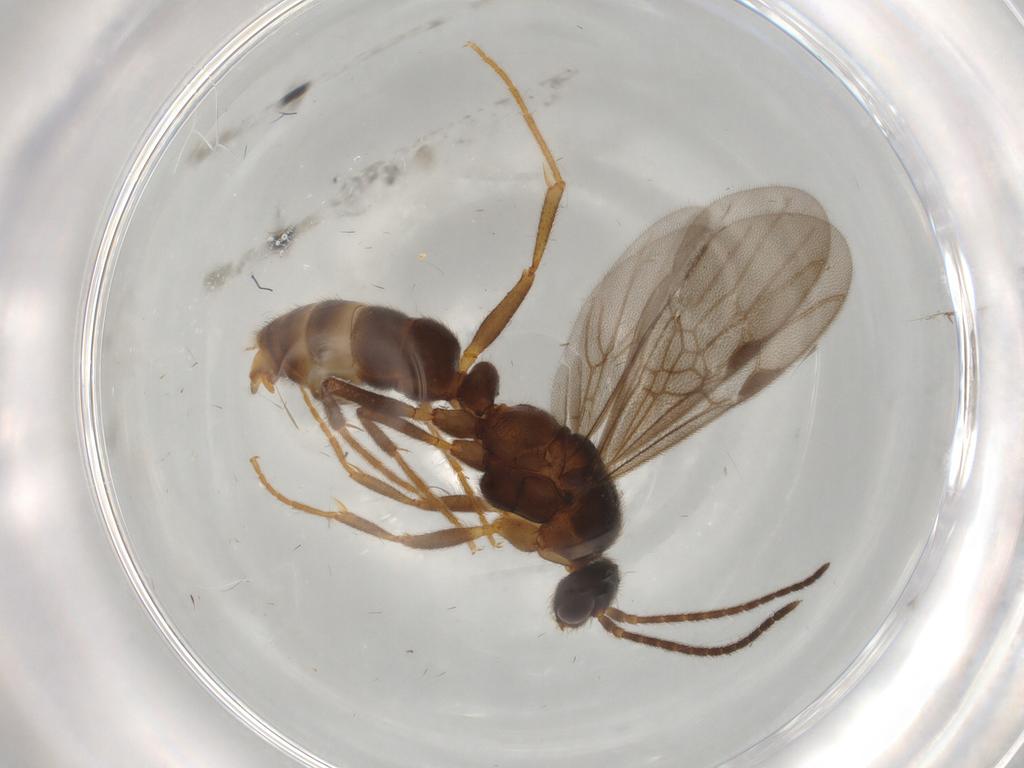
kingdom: Animalia
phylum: Arthropoda
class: Insecta
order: Hymenoptera
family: Formicidae
